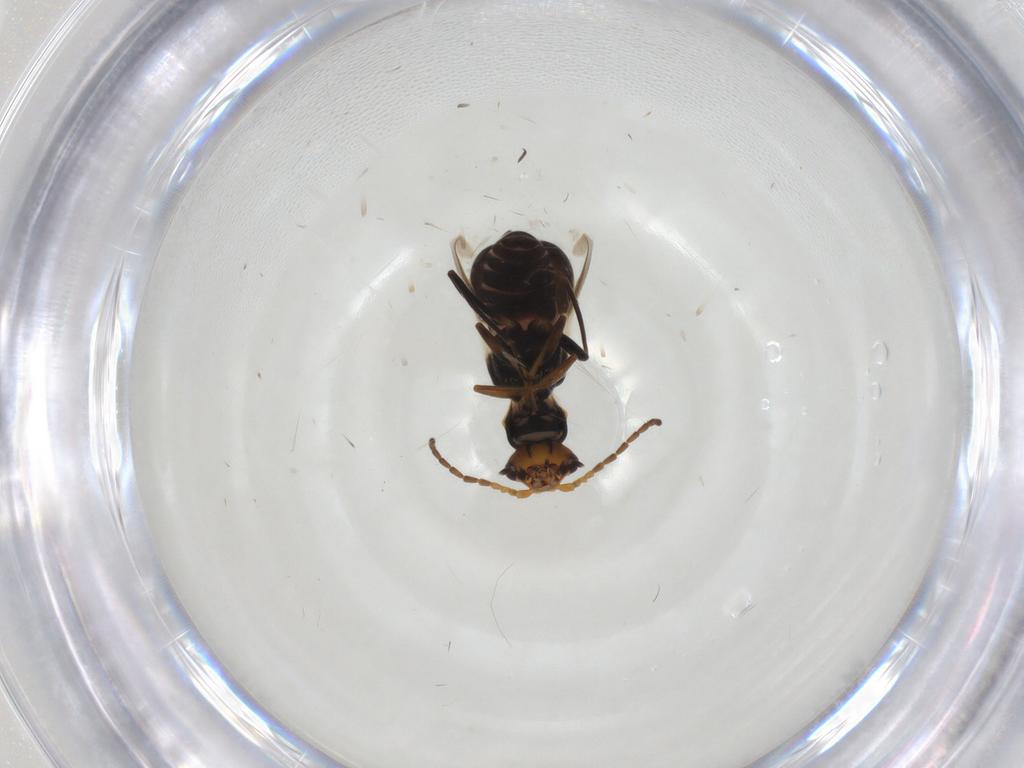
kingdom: Animalia
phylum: Arthropoda
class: Insecta
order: Coleoptera
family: Melyridae
